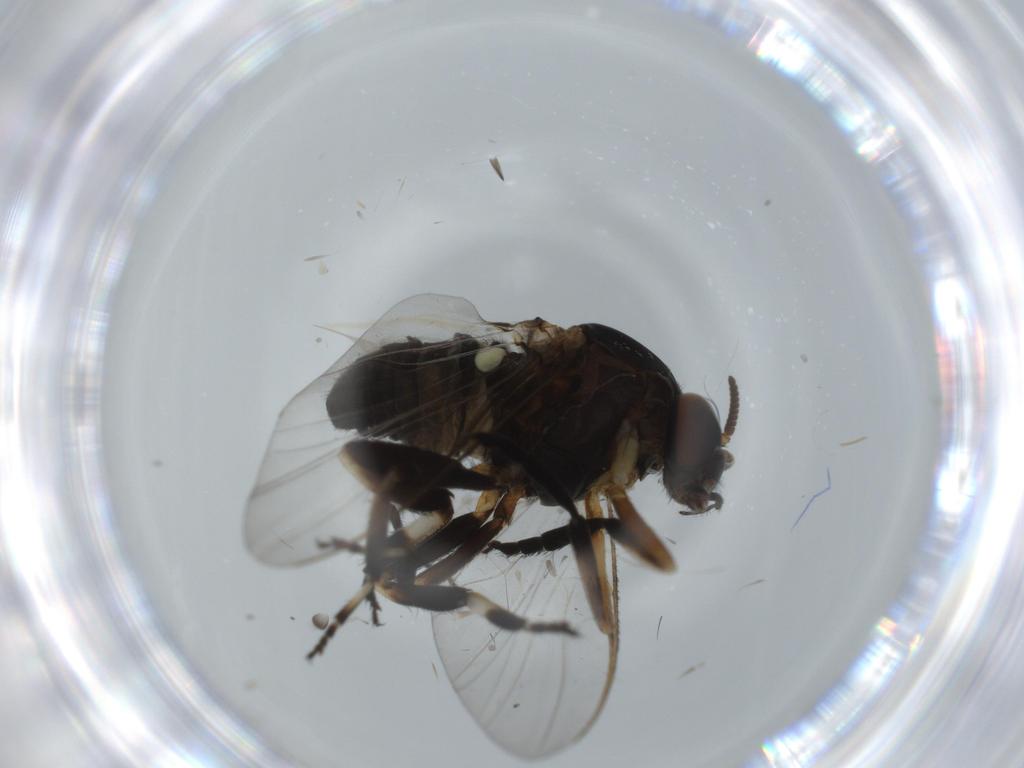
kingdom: Animalia
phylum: Arthropoda
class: Insecta
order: Diptera
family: Milichiidae
